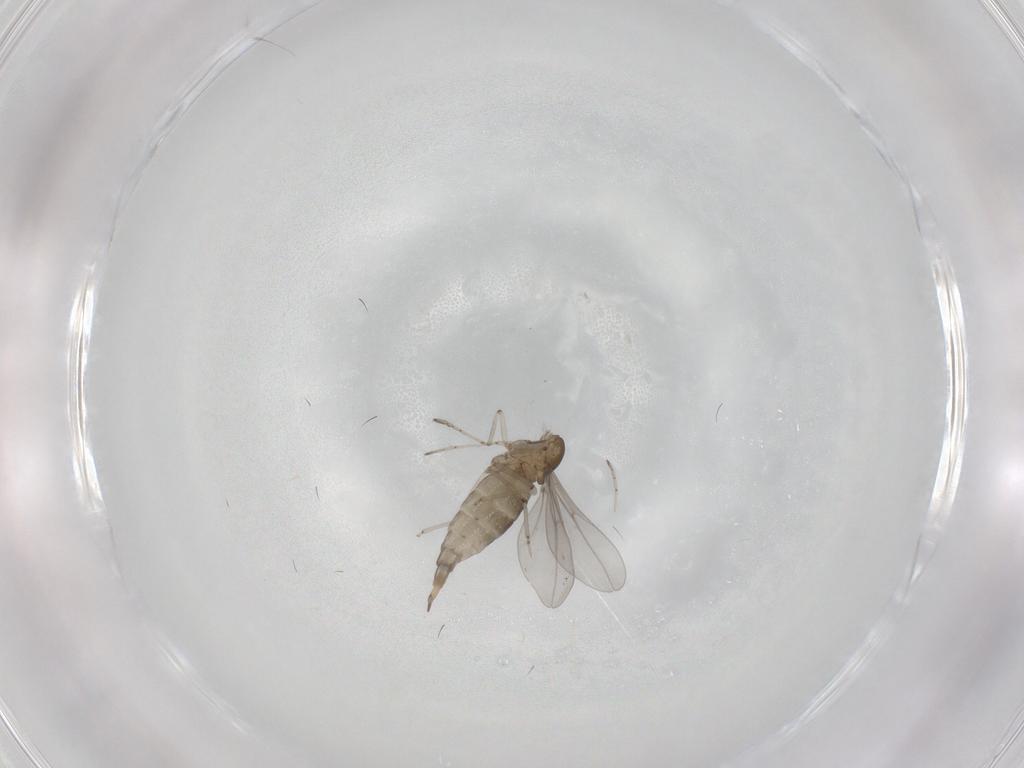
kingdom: Animalia
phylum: Arthropoda
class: Insecta
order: Diptera
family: Tabanidae
